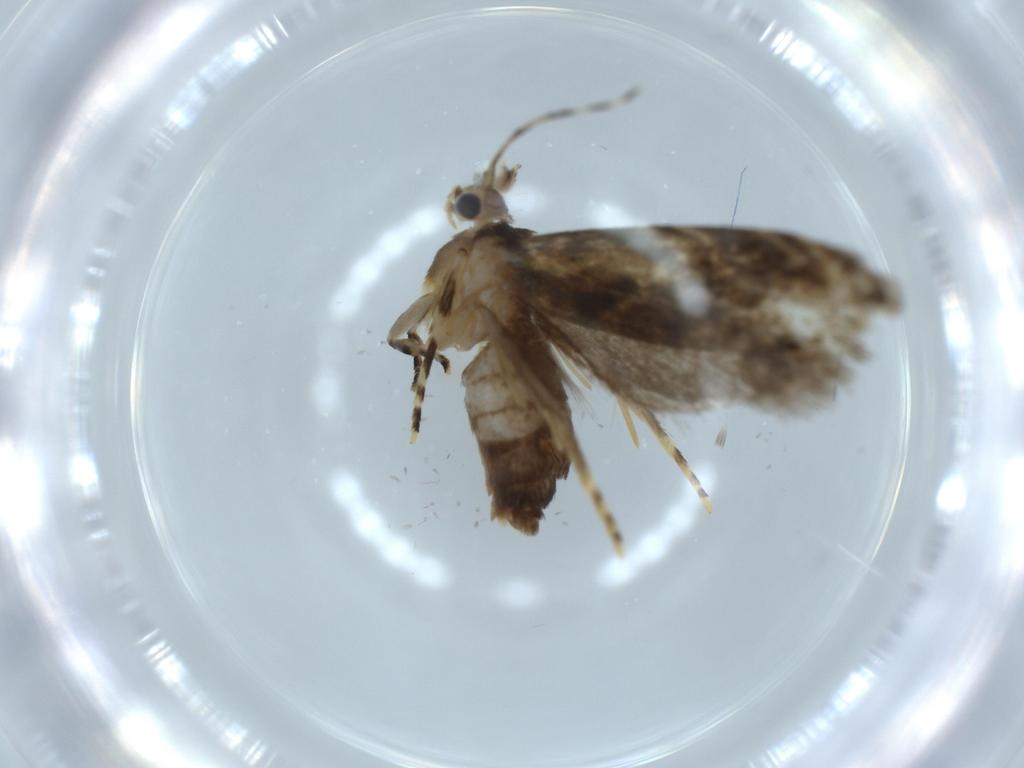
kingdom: Animalia
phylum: Arthropoda
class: Insecta
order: Lepidoptera
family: Tineidae
